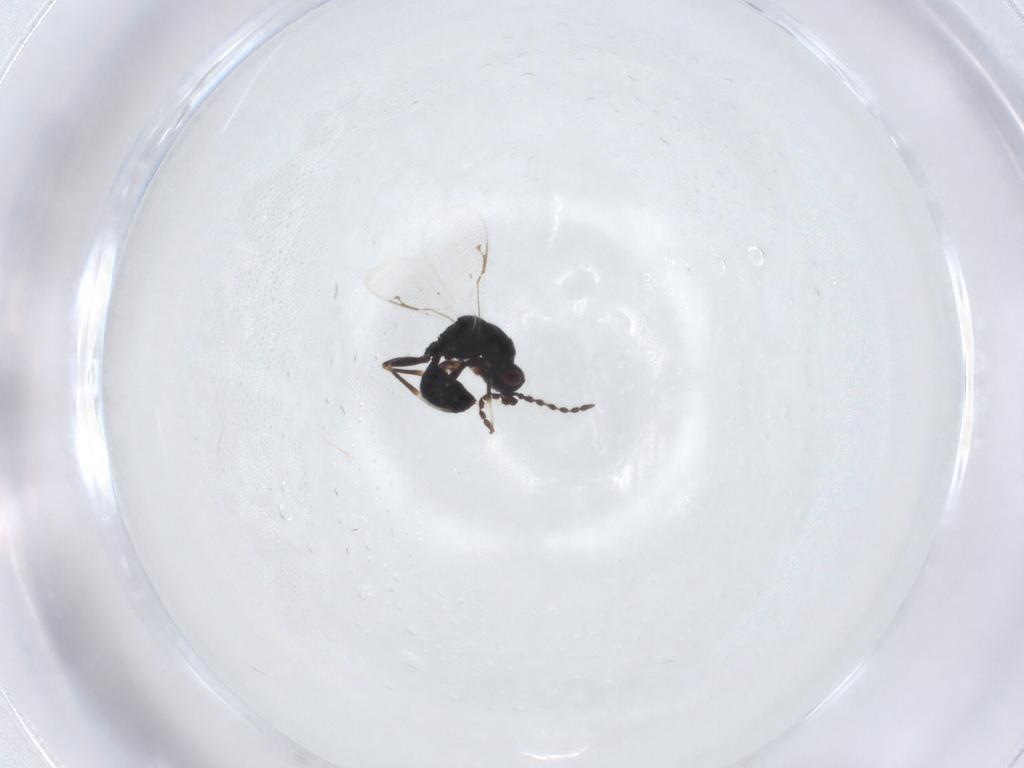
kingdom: Animalia
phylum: Arthropoda
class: Insecta
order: Hymenoptera
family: Eurytomidae
